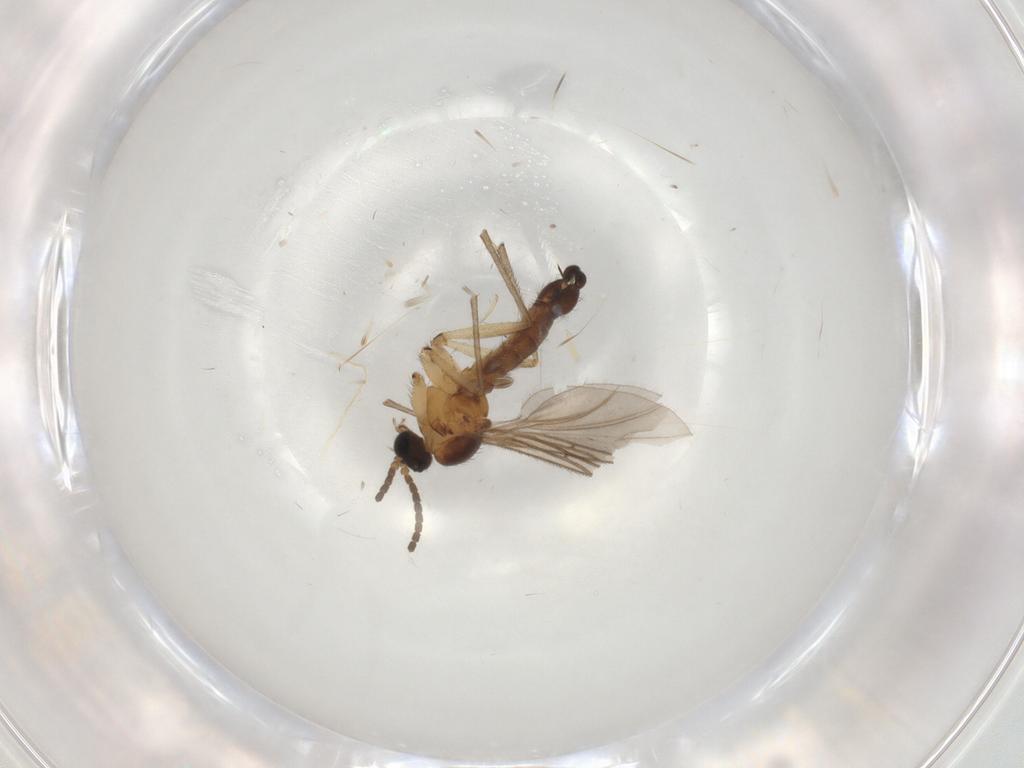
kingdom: Animalia
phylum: Arthropoda
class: Insecta
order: Diptera
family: Sciaridae
